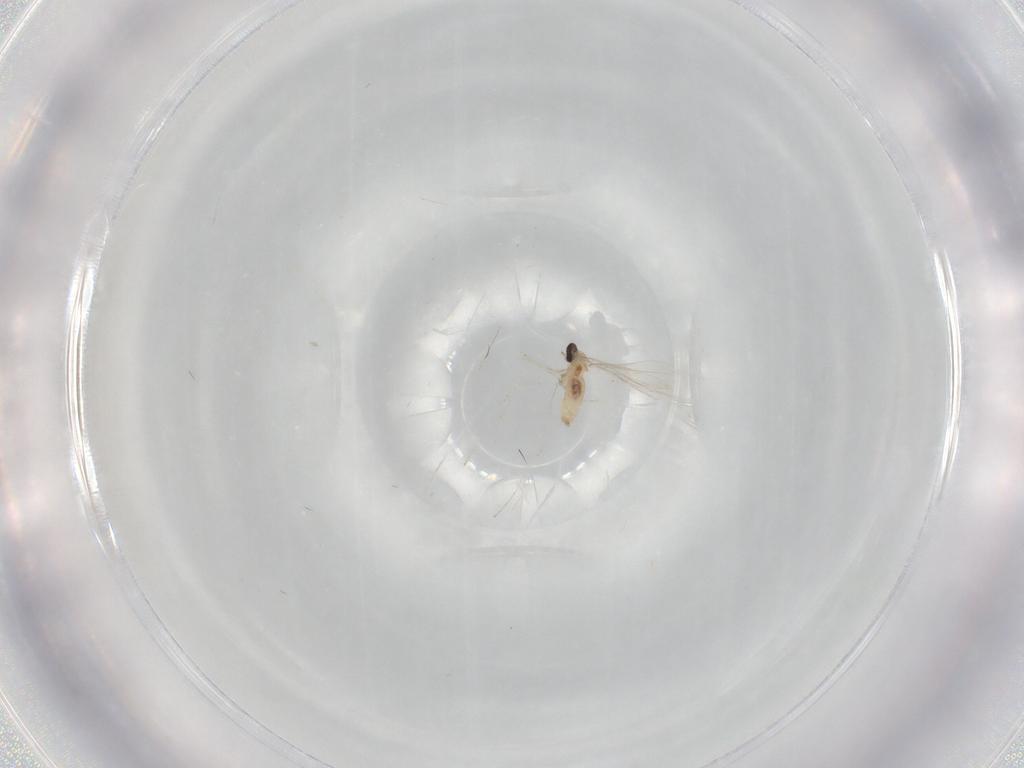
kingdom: Animalia
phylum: Arthropoda
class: Insecta
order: Diptera
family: Cecidomyiidae
